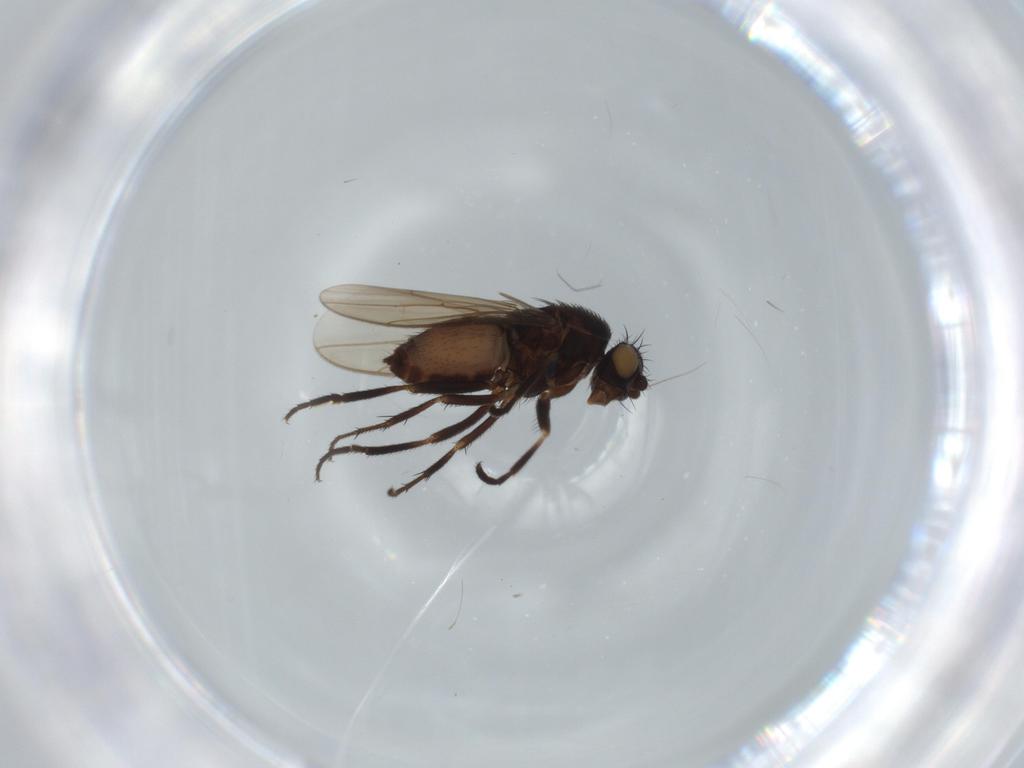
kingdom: Animalia
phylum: Arthropoda
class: Insecta
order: Diptera
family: Sphaeroceridae
